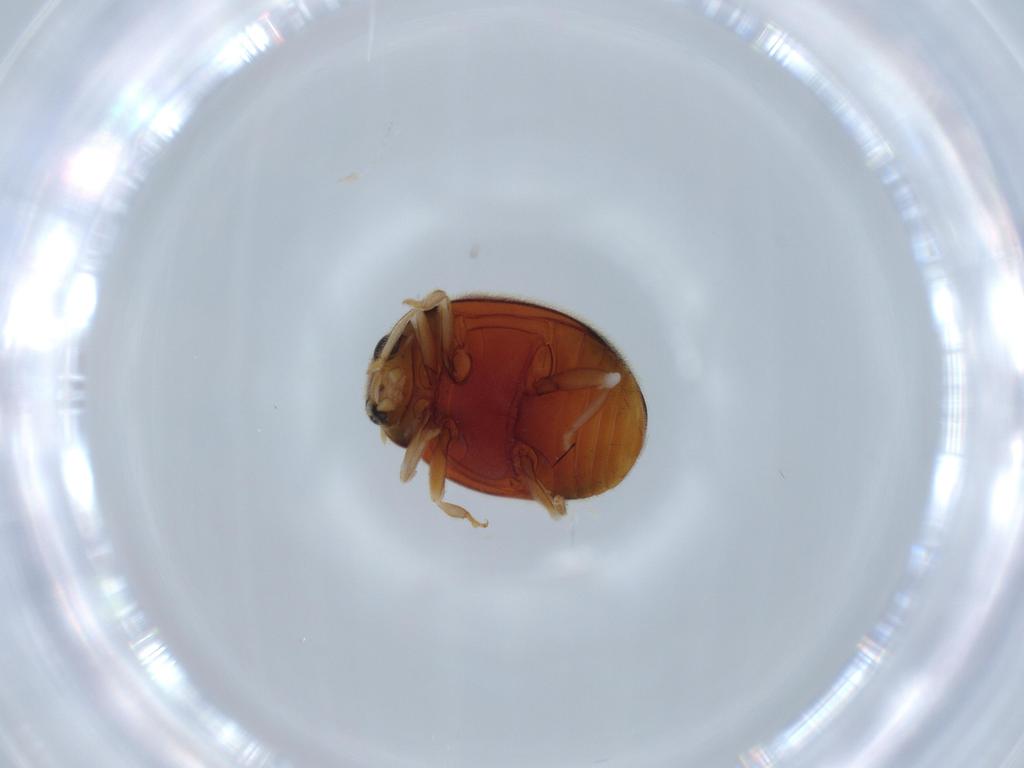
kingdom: Animalia
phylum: Arthropoda
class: Insecta
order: Coleoptera
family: Coccinellidae
